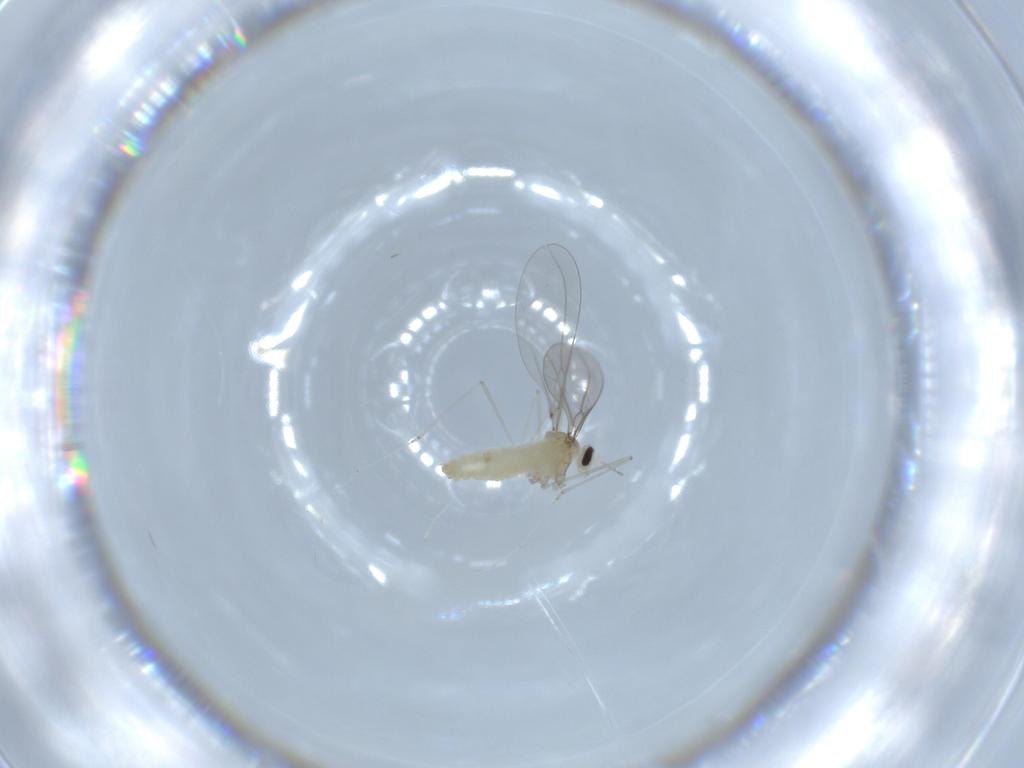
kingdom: Animalia
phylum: Arthropoda
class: Insecta
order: Diptera
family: Cecidomyiidae
